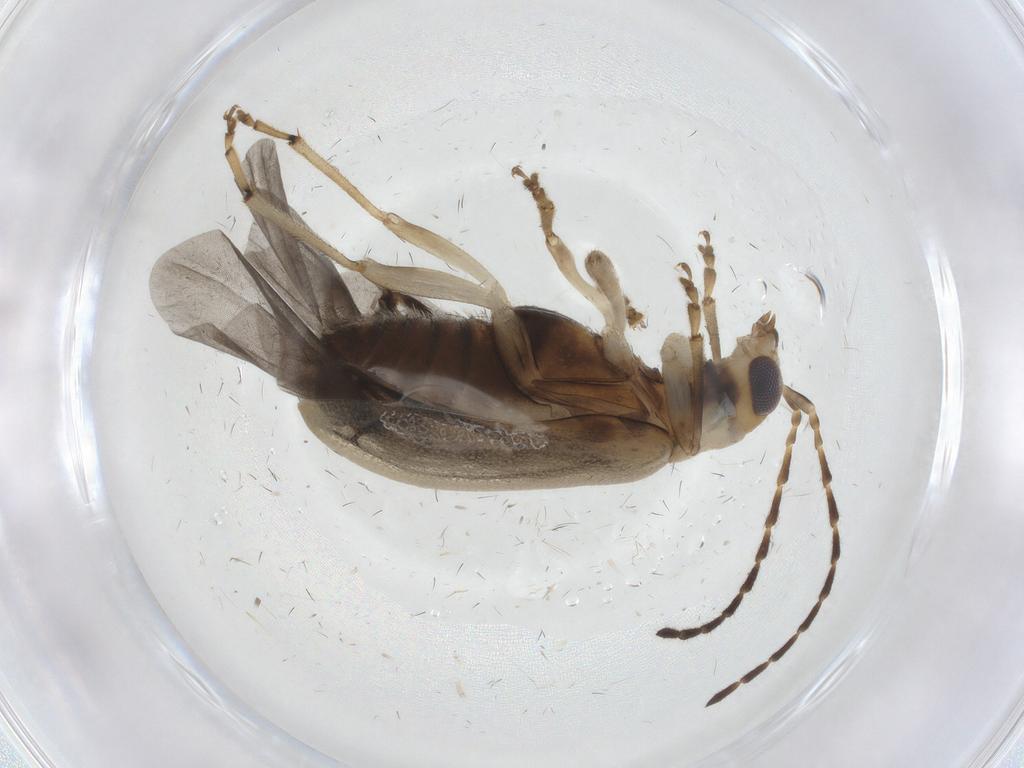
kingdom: Animalia
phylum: Arthropoda
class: Insecta
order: Coleoptera
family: Chrysomelidae
